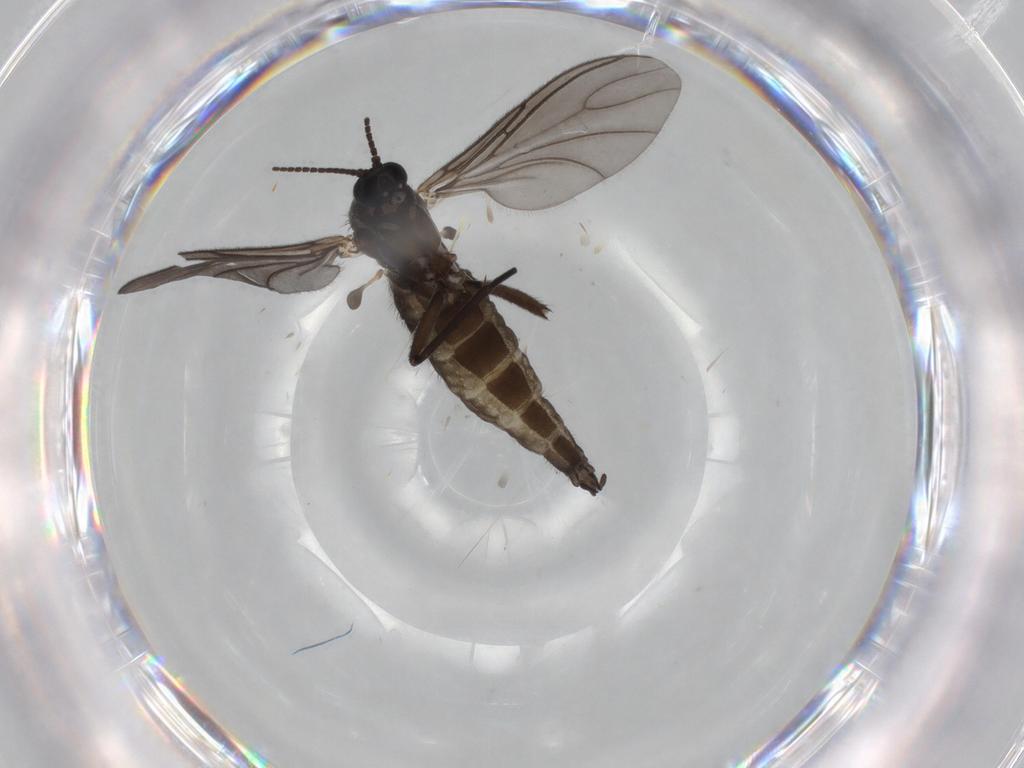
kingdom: Animalia
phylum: Arthropoda
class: Insecta
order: Diptera
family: Sciaridae
